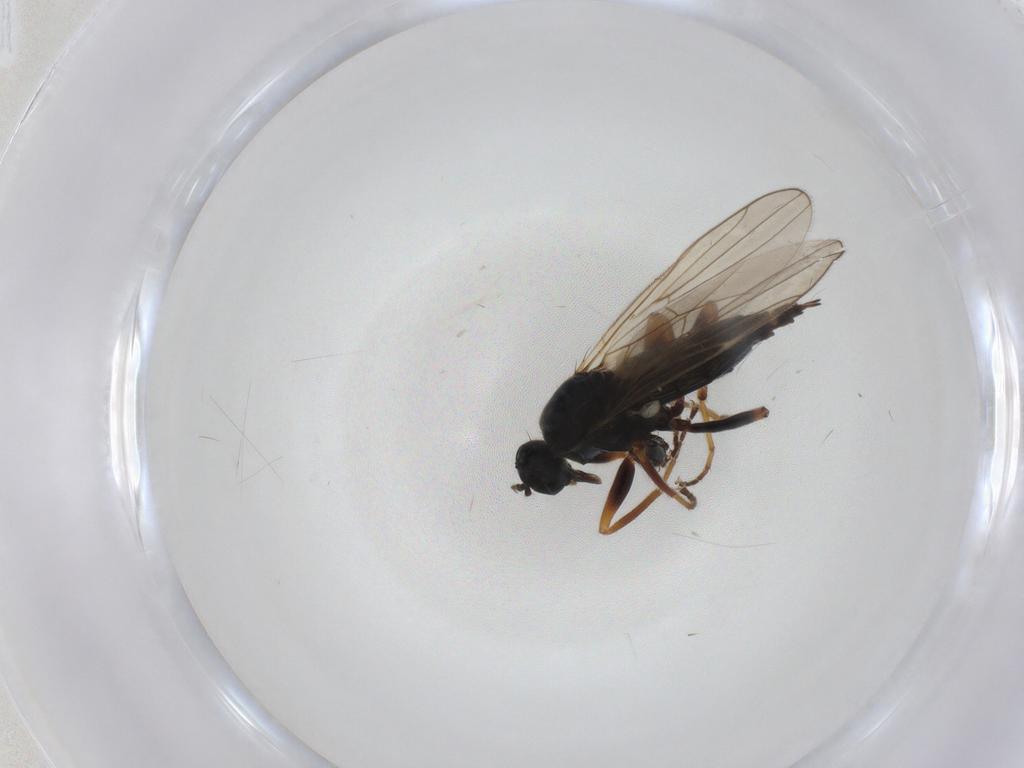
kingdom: Animalia
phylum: Arthropoda
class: Insecta
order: Diptera
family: Sciaridae
